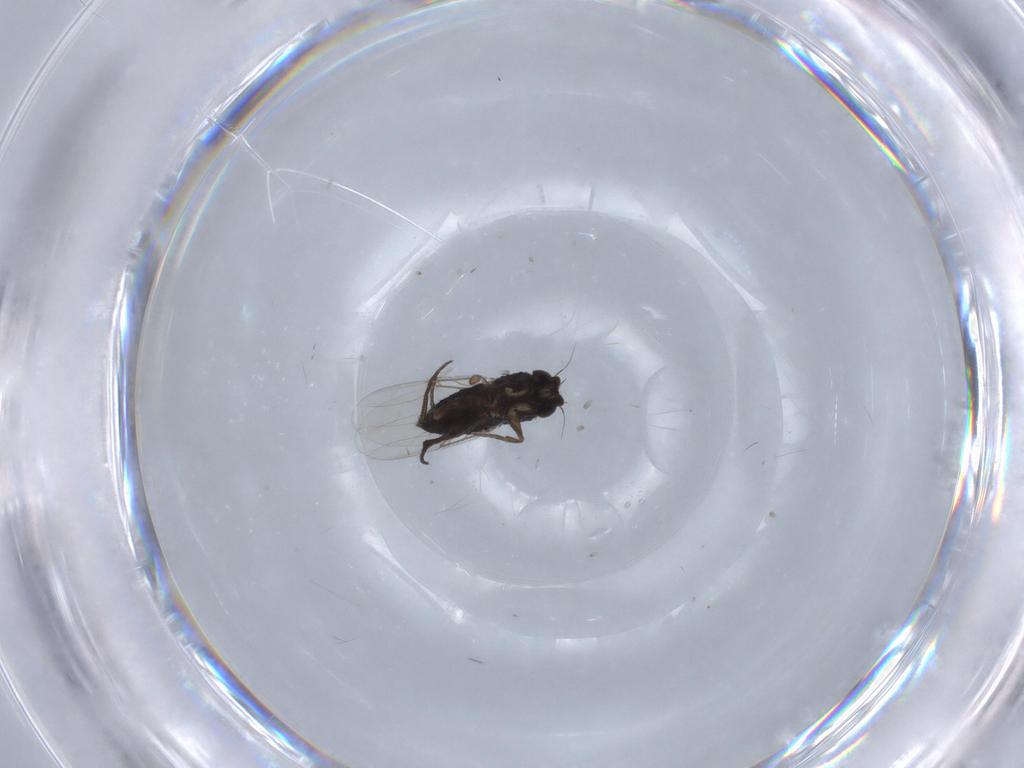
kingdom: Animalia
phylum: Arthropoda
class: Insecta
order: Diptera
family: Phoridae
